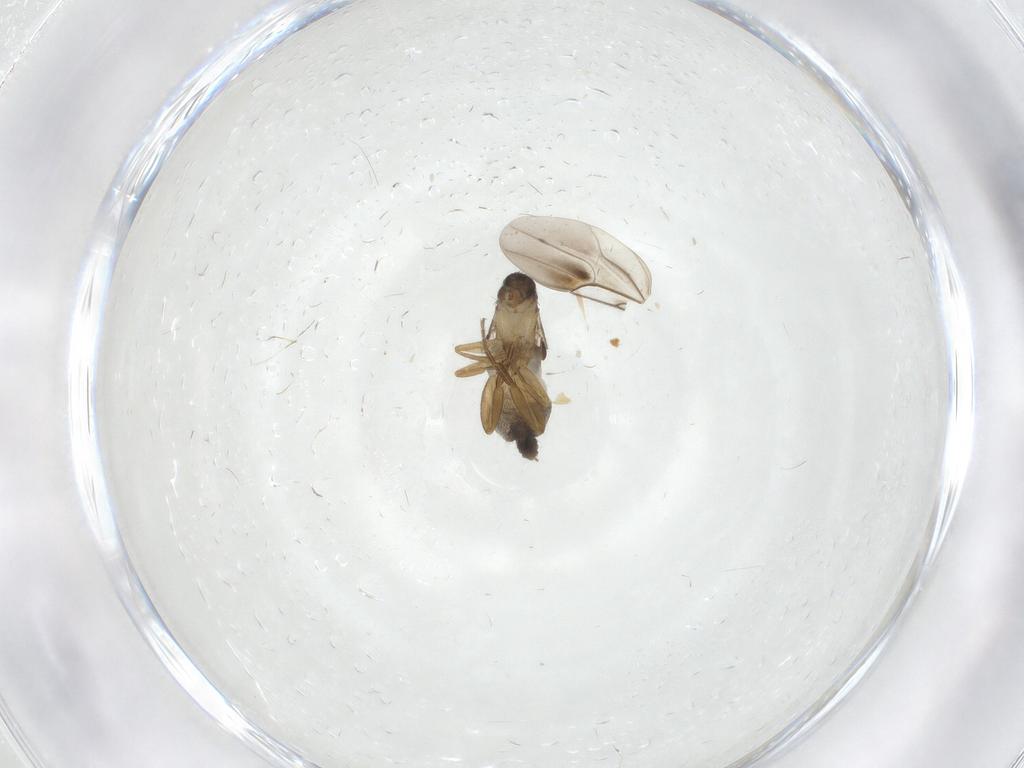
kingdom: Animalia
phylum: Arthropoda
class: Insecta
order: Diptera
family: Phoridae
